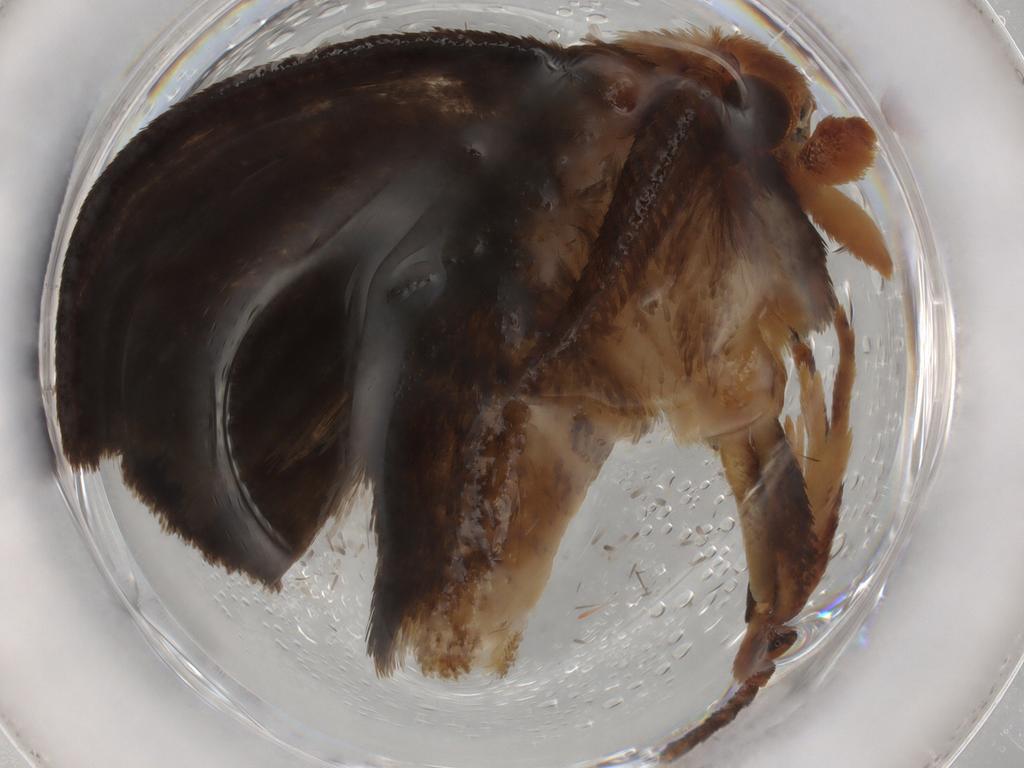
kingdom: Animalia
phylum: Arthropoda
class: Insecta
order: Lepidoptera
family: Limacodidae
